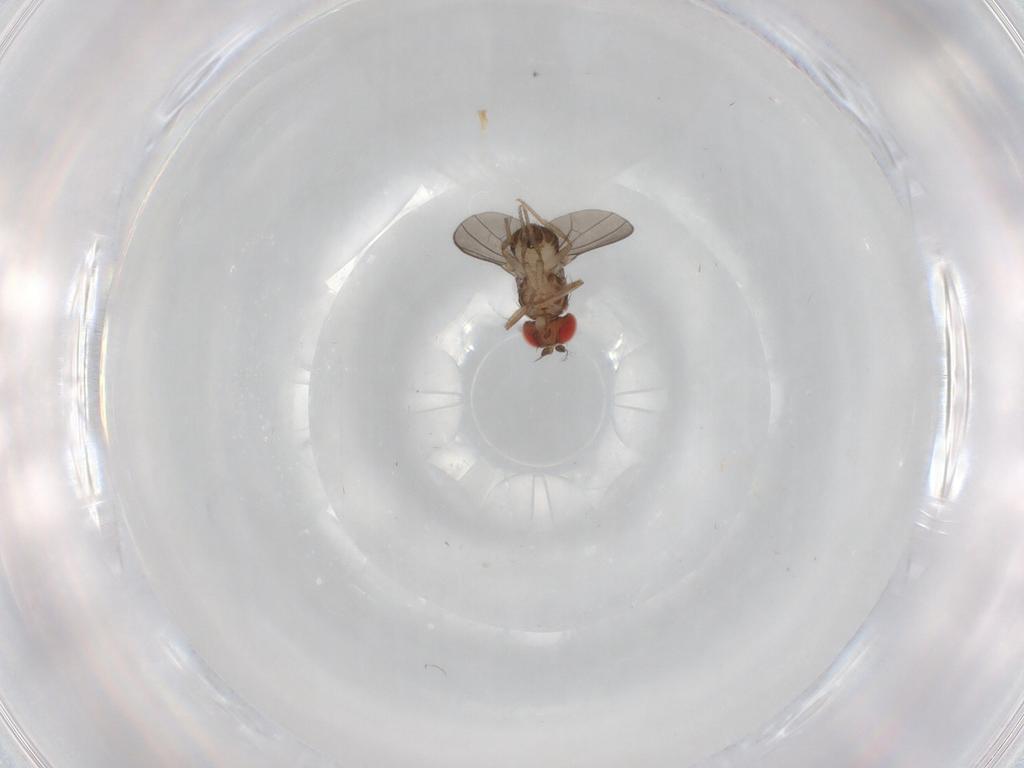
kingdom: Animalia
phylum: Arthropoda
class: Insecta
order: Diptera
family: Drosophilidae
